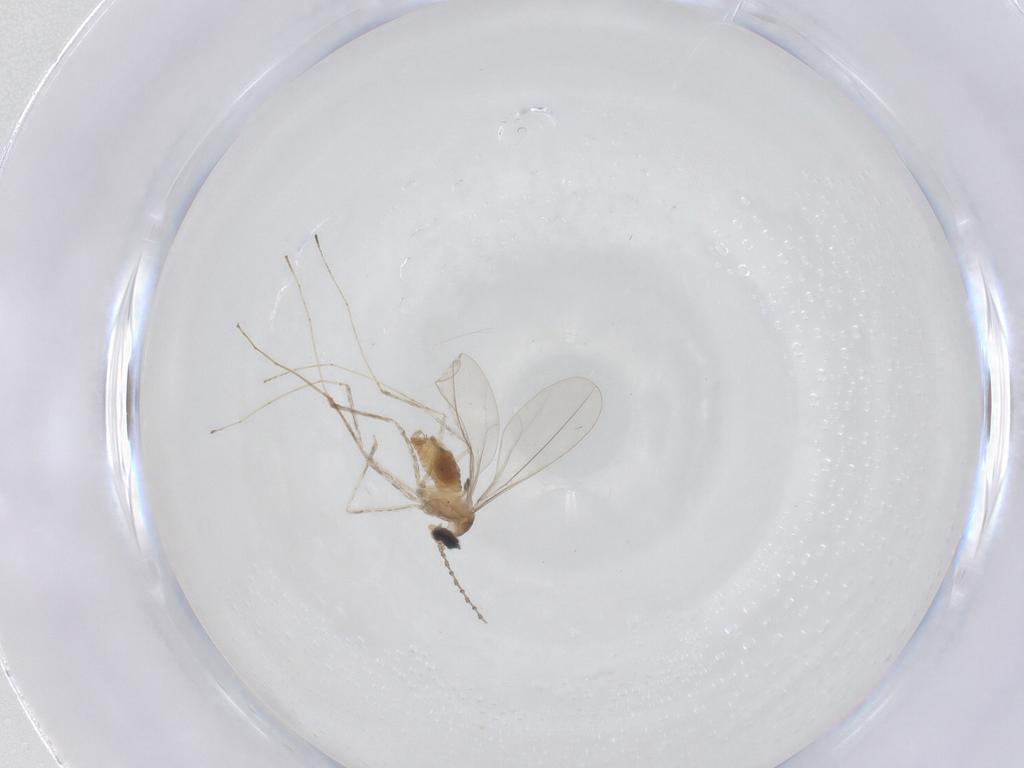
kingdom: Animalia
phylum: Arthropoda
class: Insecta
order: Diptera
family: Cecidomyiidae
